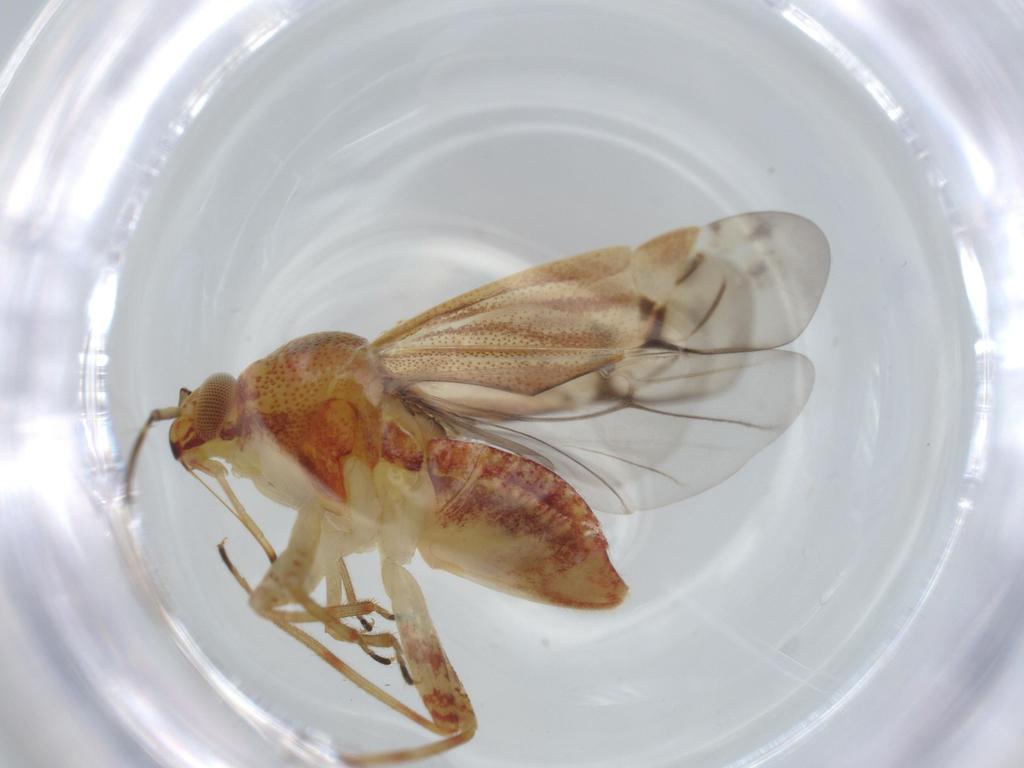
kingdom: Animalia
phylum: Arthropoda
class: Insecta
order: Hemiptera
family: Miridae
